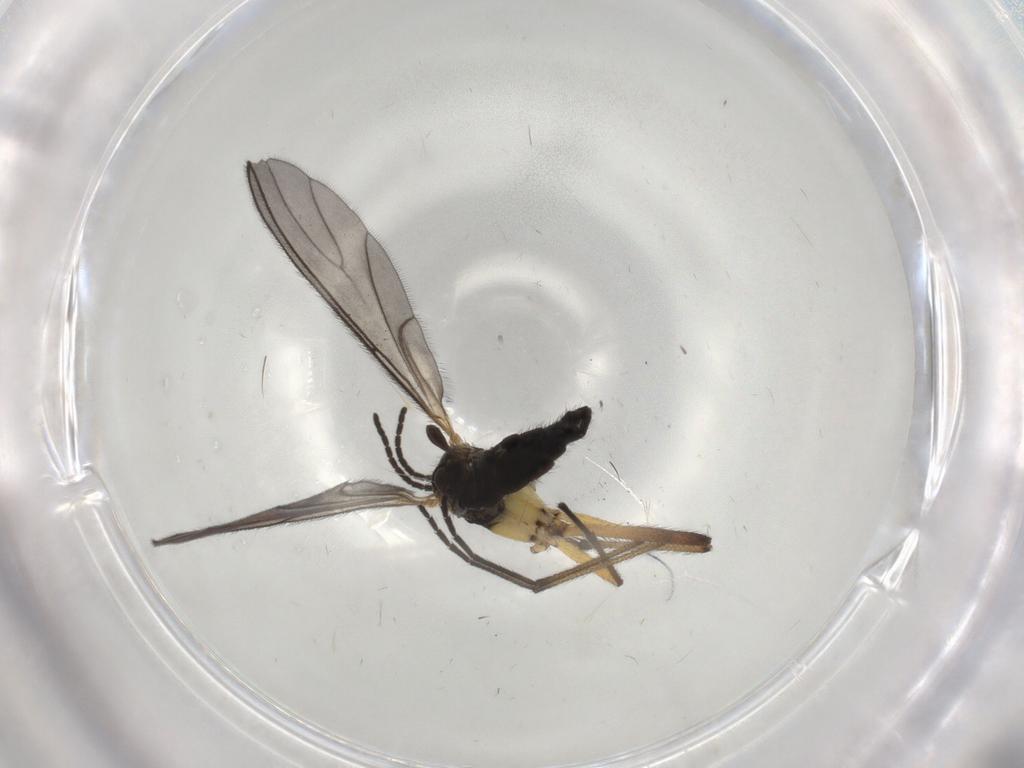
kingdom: Animalia
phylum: Arthropoda
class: Insecta
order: Diptera
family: Sciaridae
